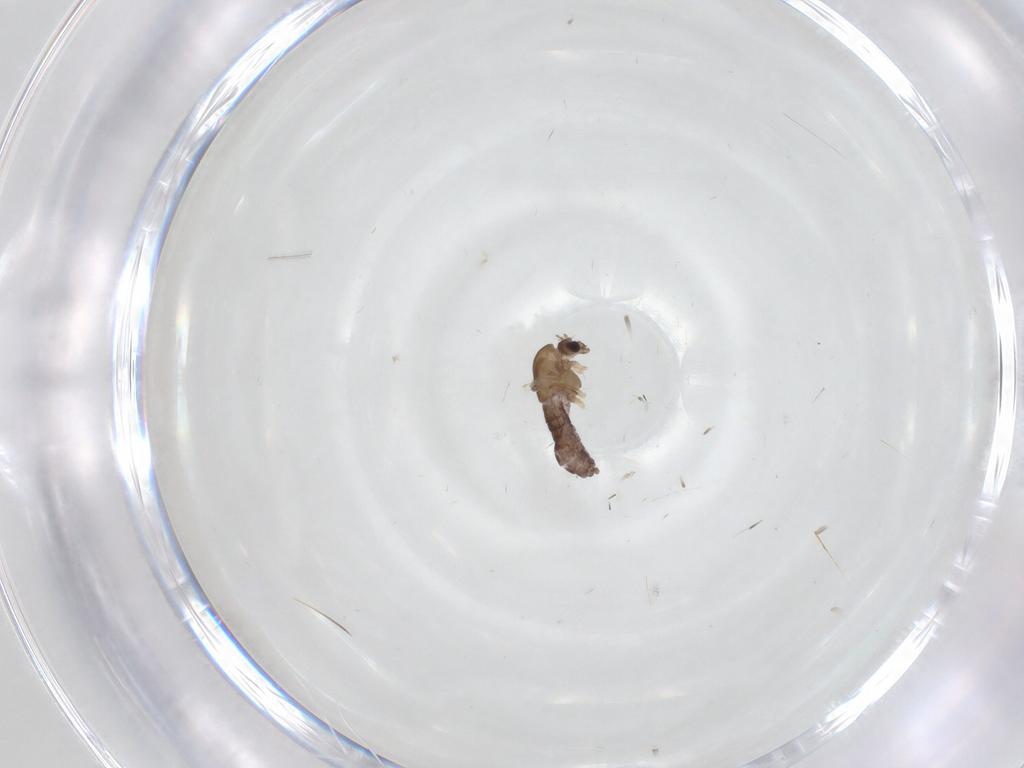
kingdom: Animalia
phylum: Arthropoda
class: Insecta
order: Diptera
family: Chironomidae
